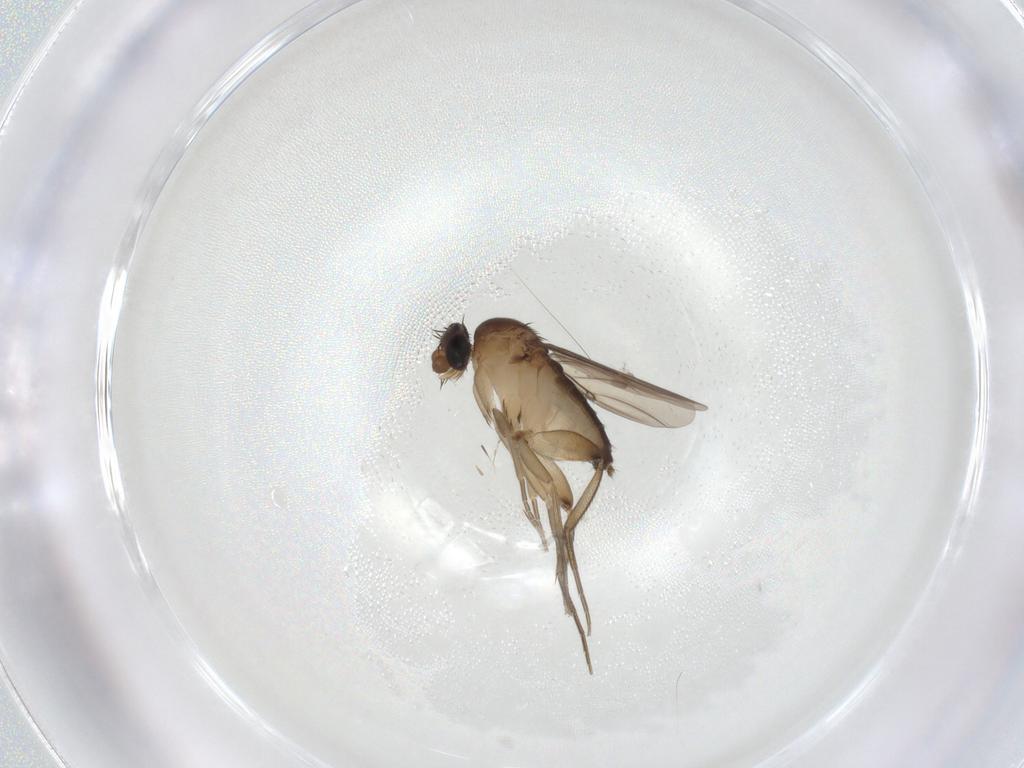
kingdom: Animalia
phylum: Arthropoda
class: Insecta
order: Diptera
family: Phoridae
